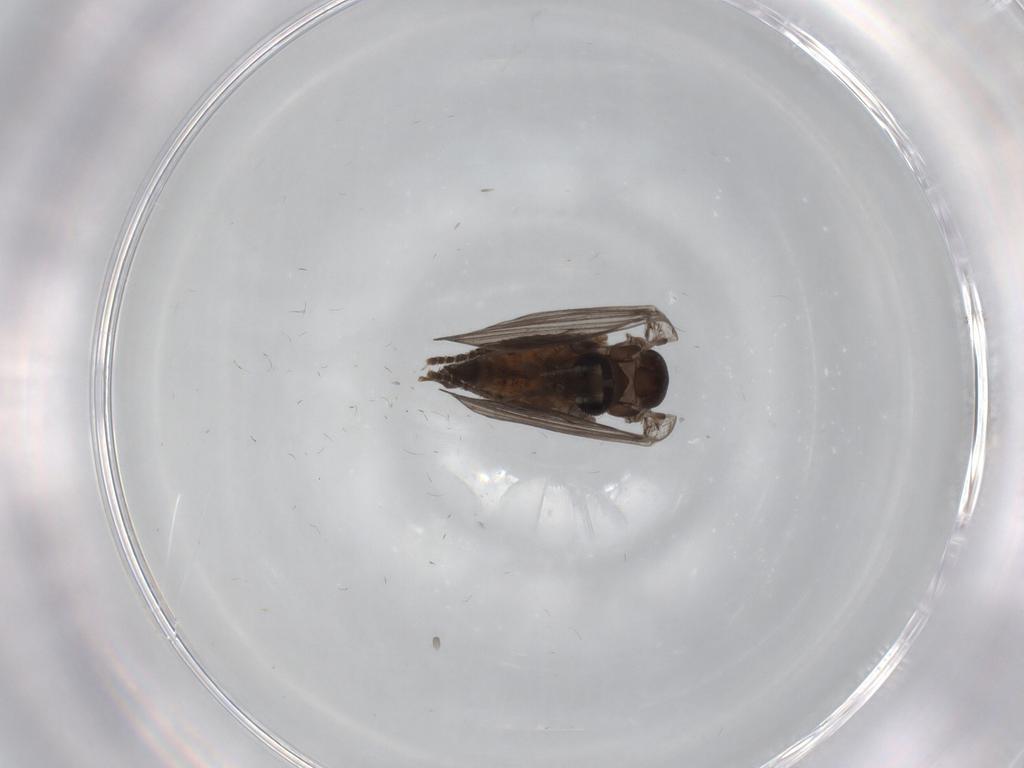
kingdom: Animalia
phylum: Arthropoda
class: Insecta
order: Diptera
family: Psychodidae
